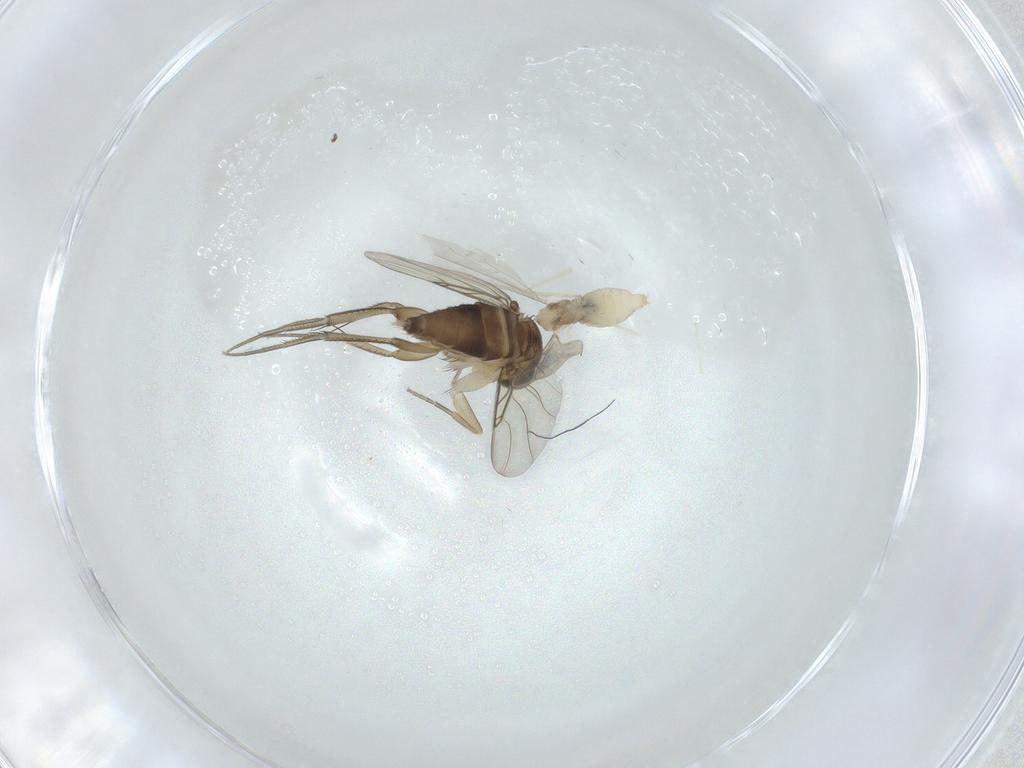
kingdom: Animalia
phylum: Arthropoda
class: Insecta
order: Diptera
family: Phoridae
